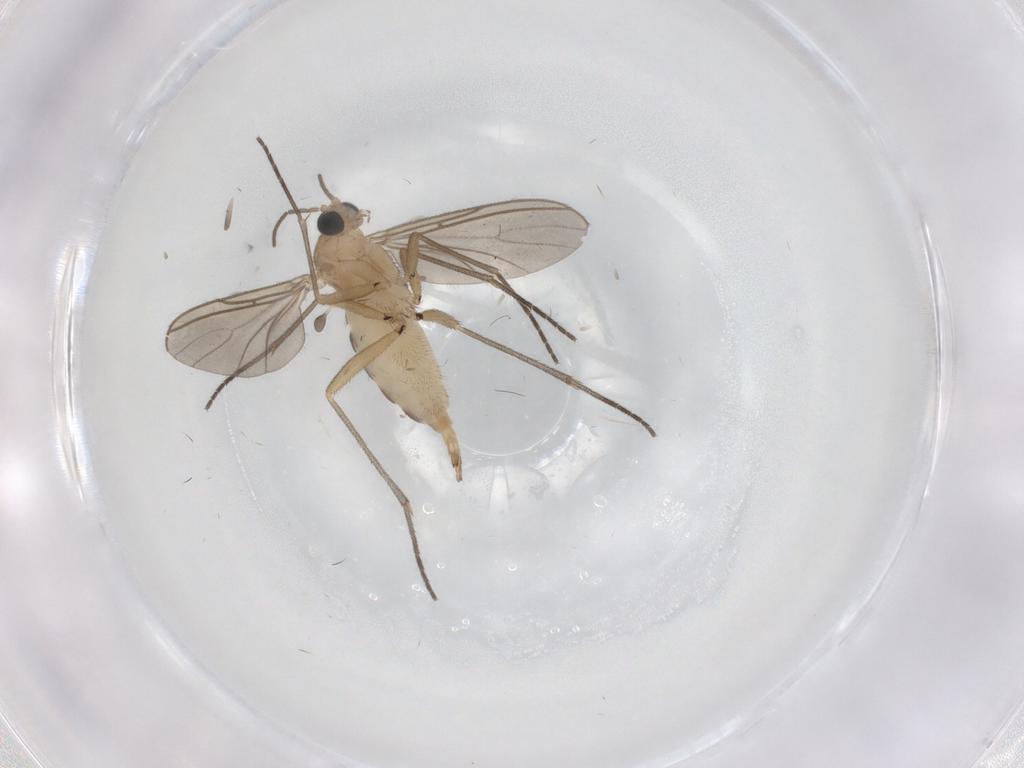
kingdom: Animalia
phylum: Arthropoda
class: Insecta
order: Diptera
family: Sciaridae
